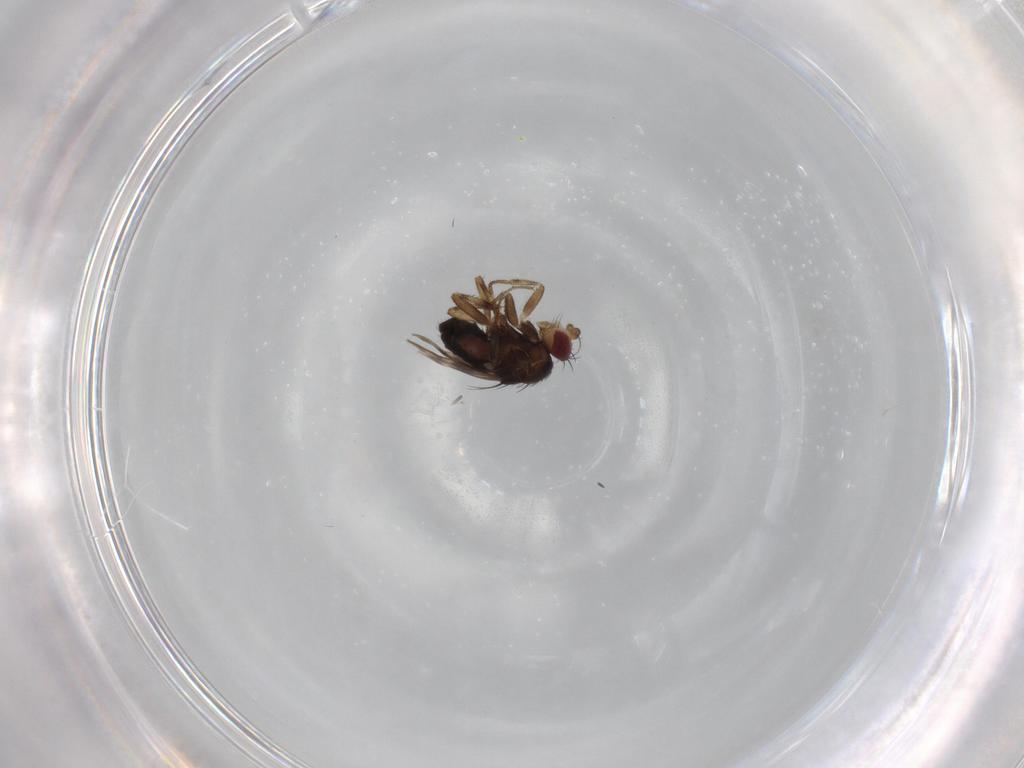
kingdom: Animalia
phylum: Arthropoda
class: Insecta
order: Diptera
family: Sphaeroceridae
